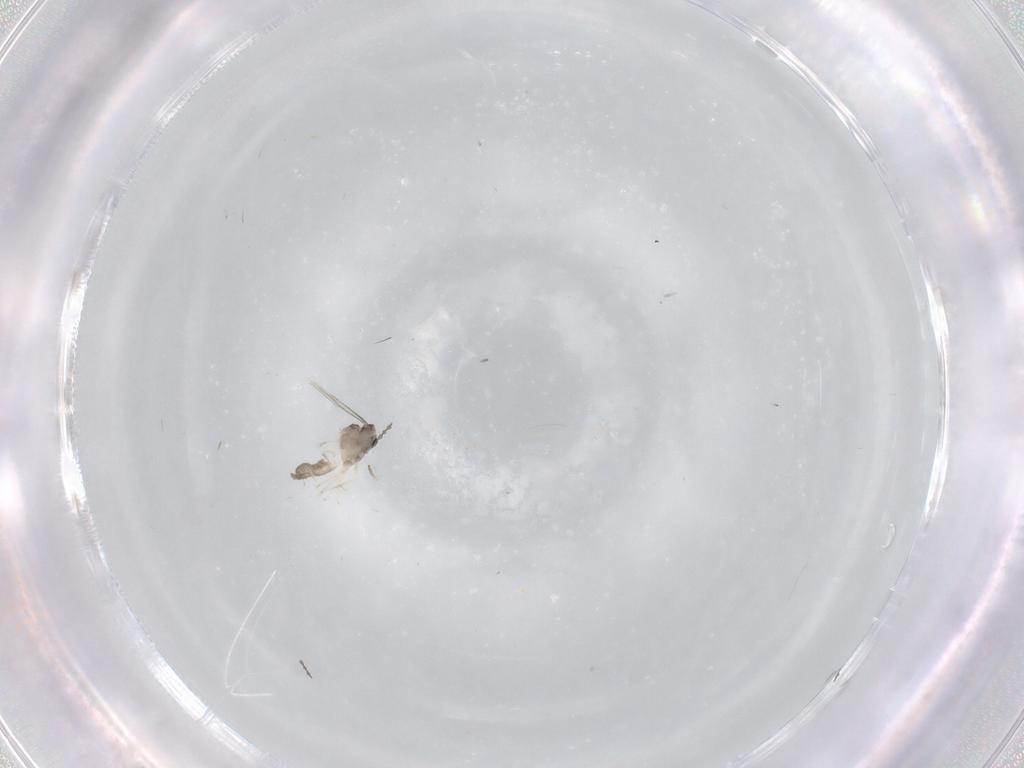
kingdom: Animalia
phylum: Arthropoda
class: Insecta
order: Diptera
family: Cecidomyiidae
